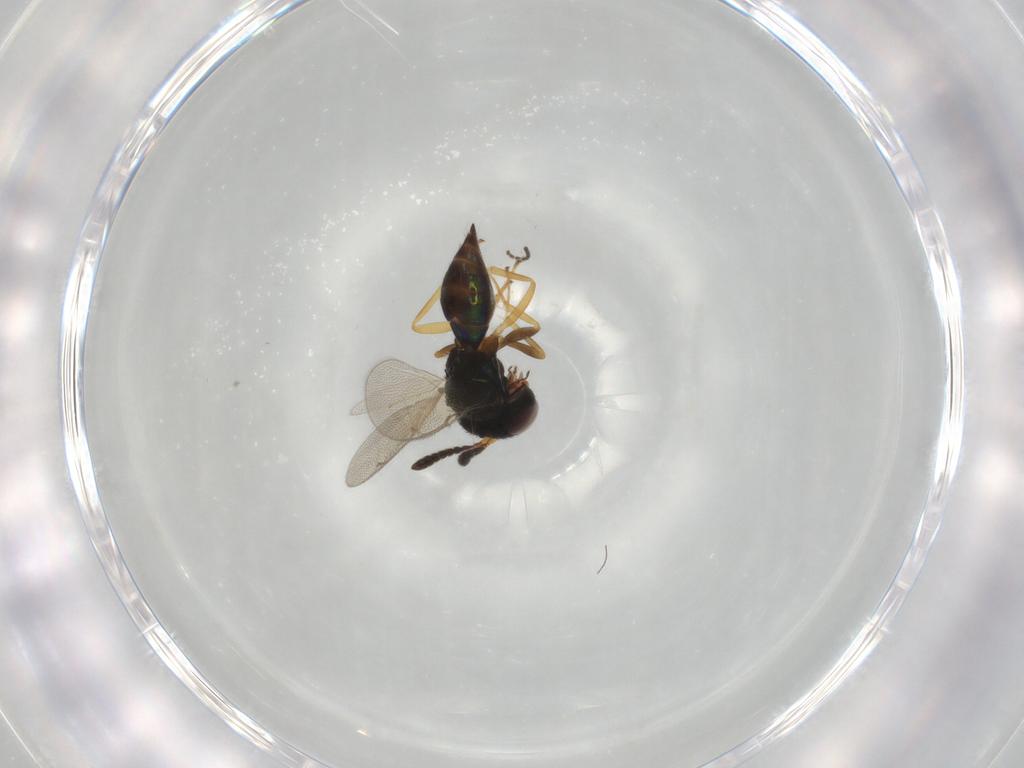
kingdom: Animalia
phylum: Arthropoda
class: Insecta
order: Hymenoptera
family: Pteromalidae
